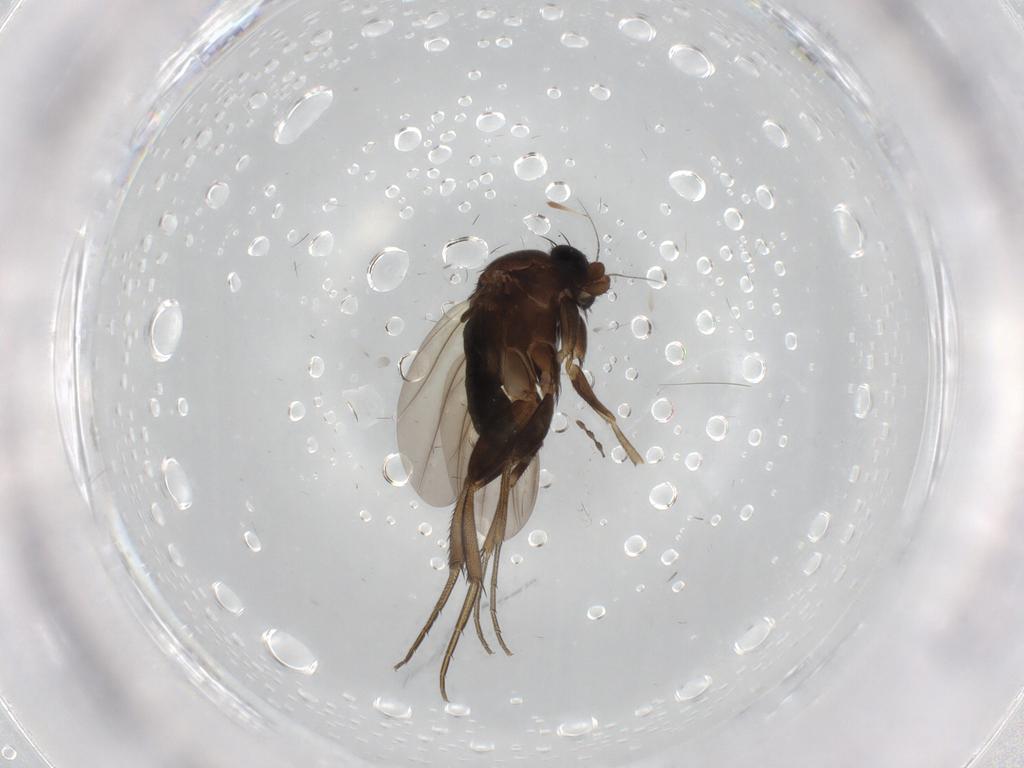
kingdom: Animalia
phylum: Arthropoda
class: Insecta
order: Diptera
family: Phoridae
